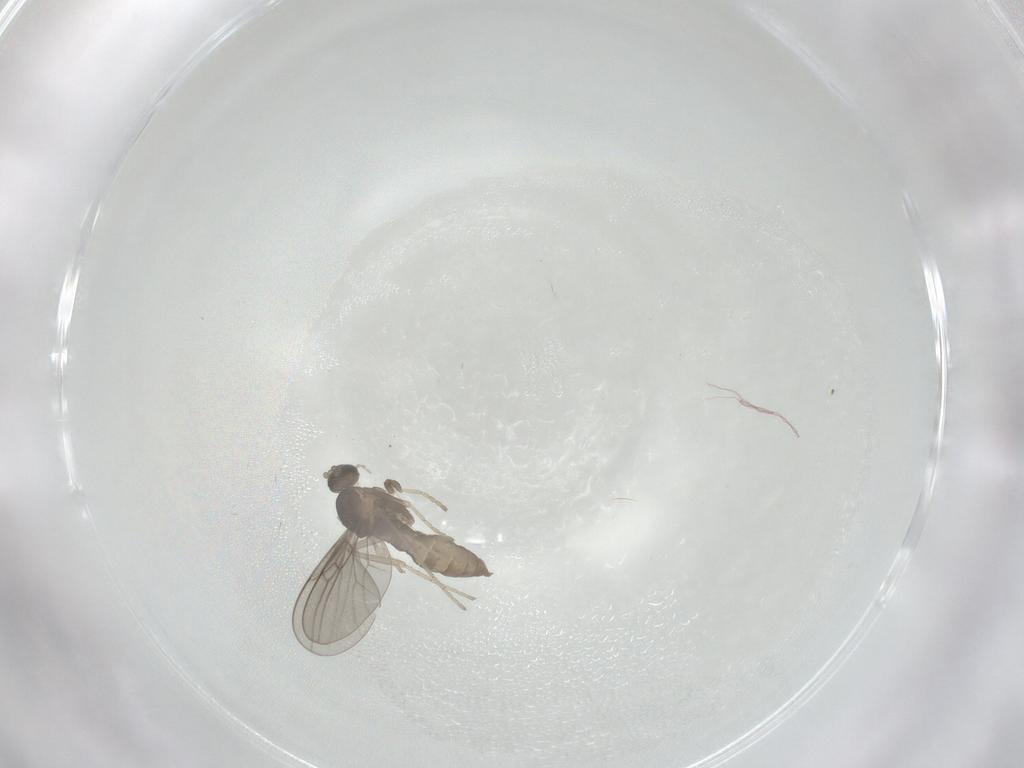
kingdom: Animalia
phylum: Arthropoda
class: Insecta
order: Diptera
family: Cecidomyiidae
